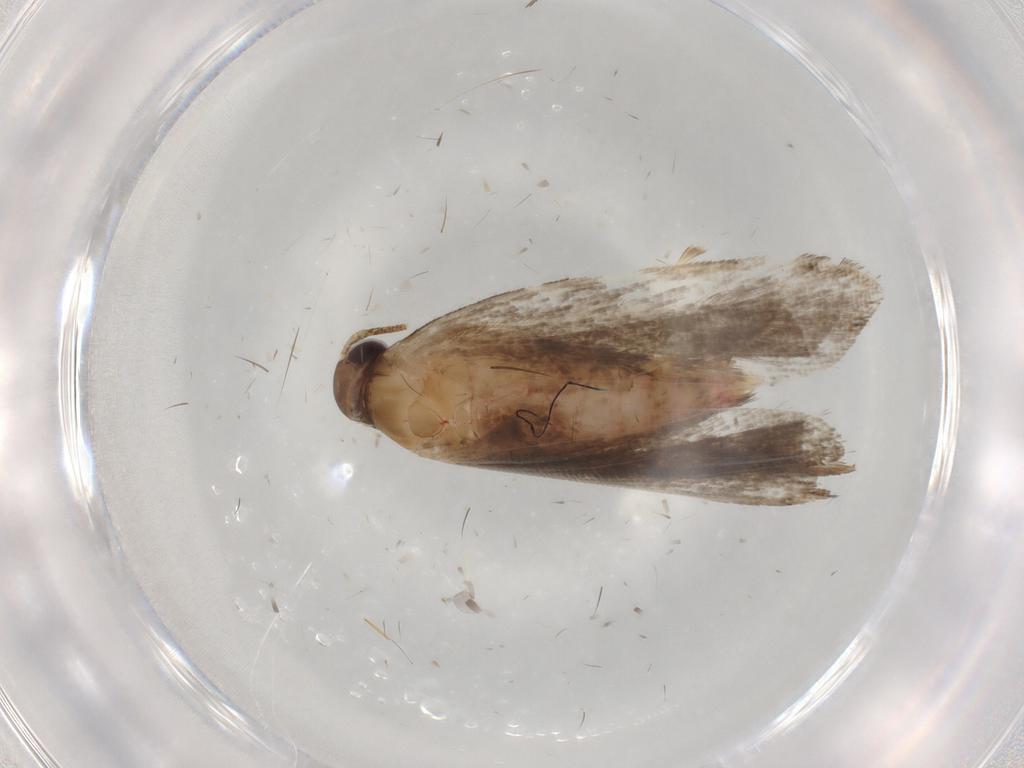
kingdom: Animalia
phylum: Arthropoda
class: Insecta
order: Lepidoptera
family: Gelechiidae
